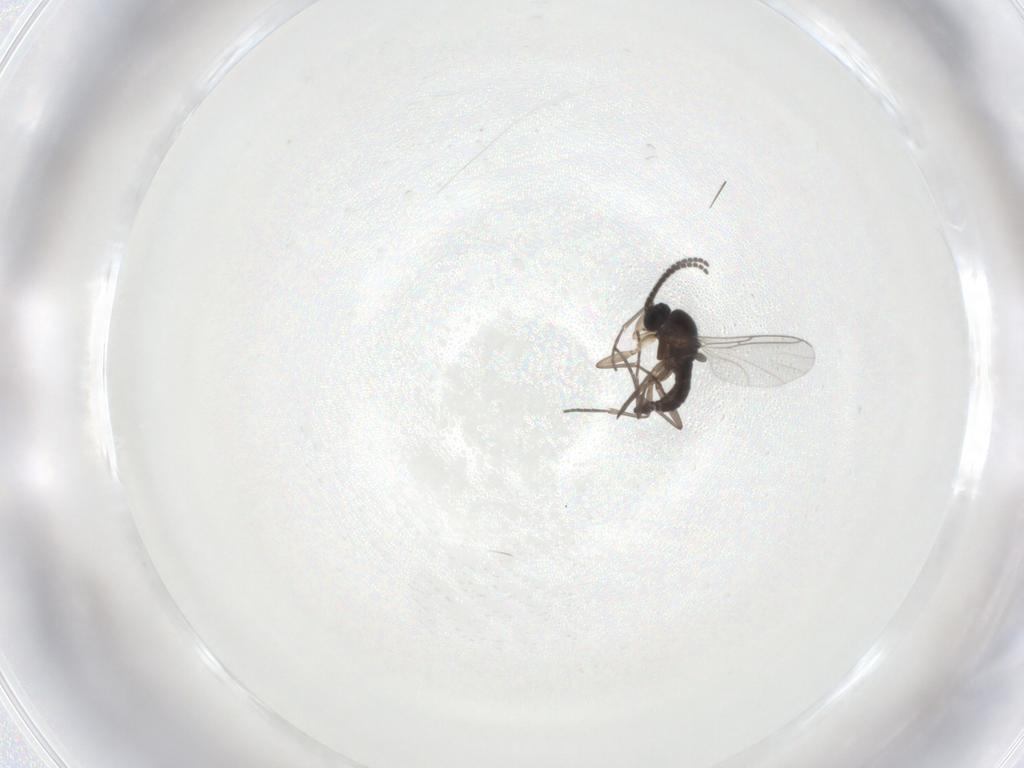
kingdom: Animalia
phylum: Arthropoda
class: Insecta
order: Diptera
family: Sciaridae
